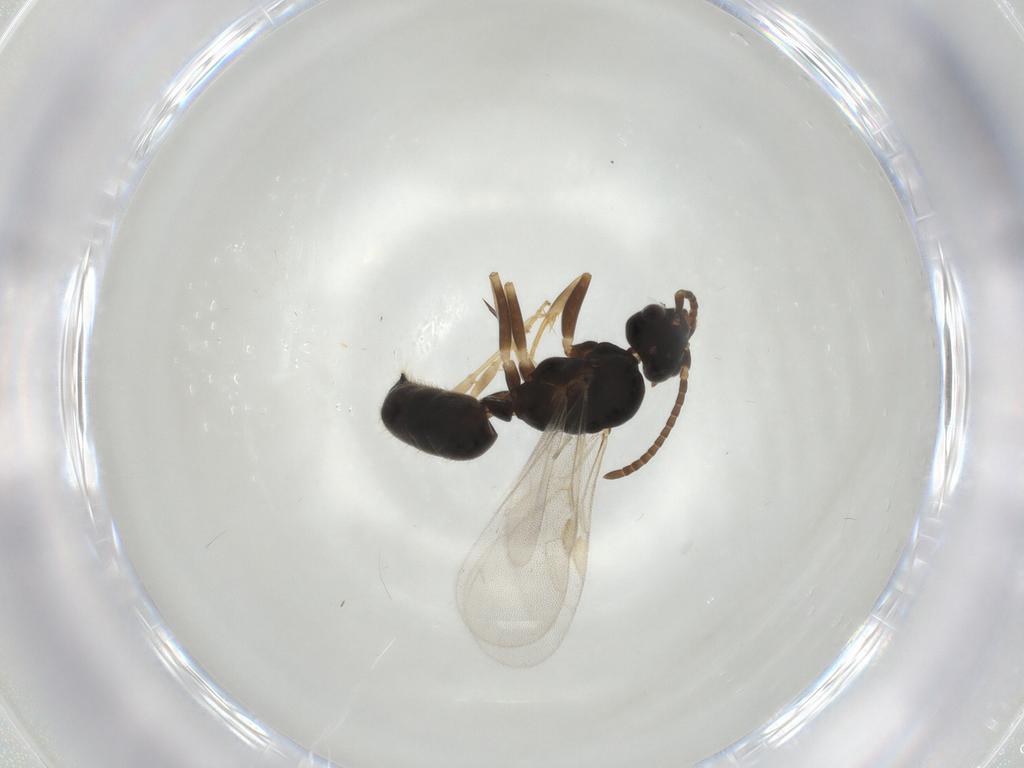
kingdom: Animalia
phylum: Arthropoda
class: Insecta
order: Hymenoptera
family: Formicidae
